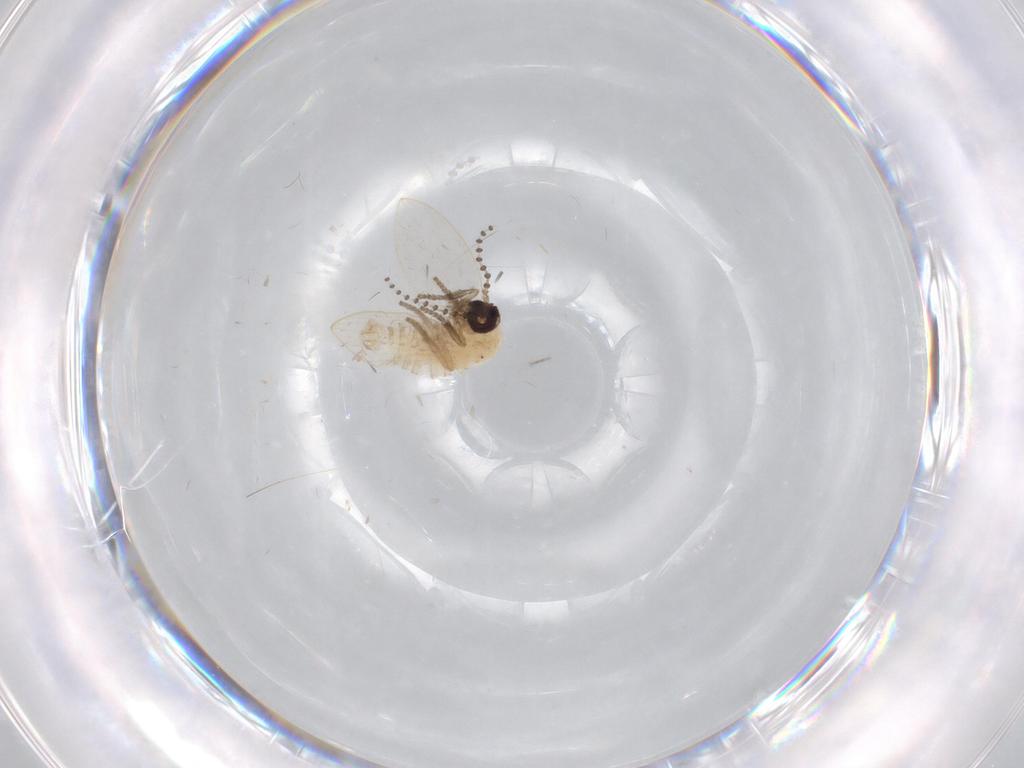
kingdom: Animalia
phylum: Arthropoda
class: Insecta
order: Diptera
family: Psychodidae
